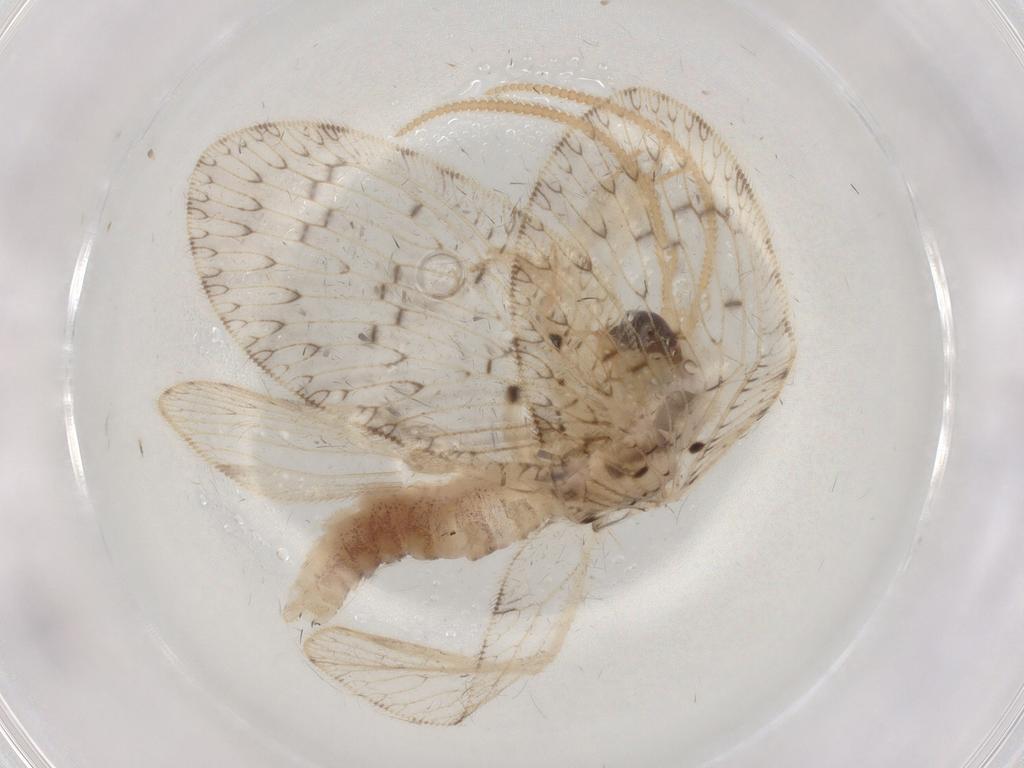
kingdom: Animalia
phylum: Arthropoda
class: Insecta
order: Neuroptera
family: Hemerobiidae
